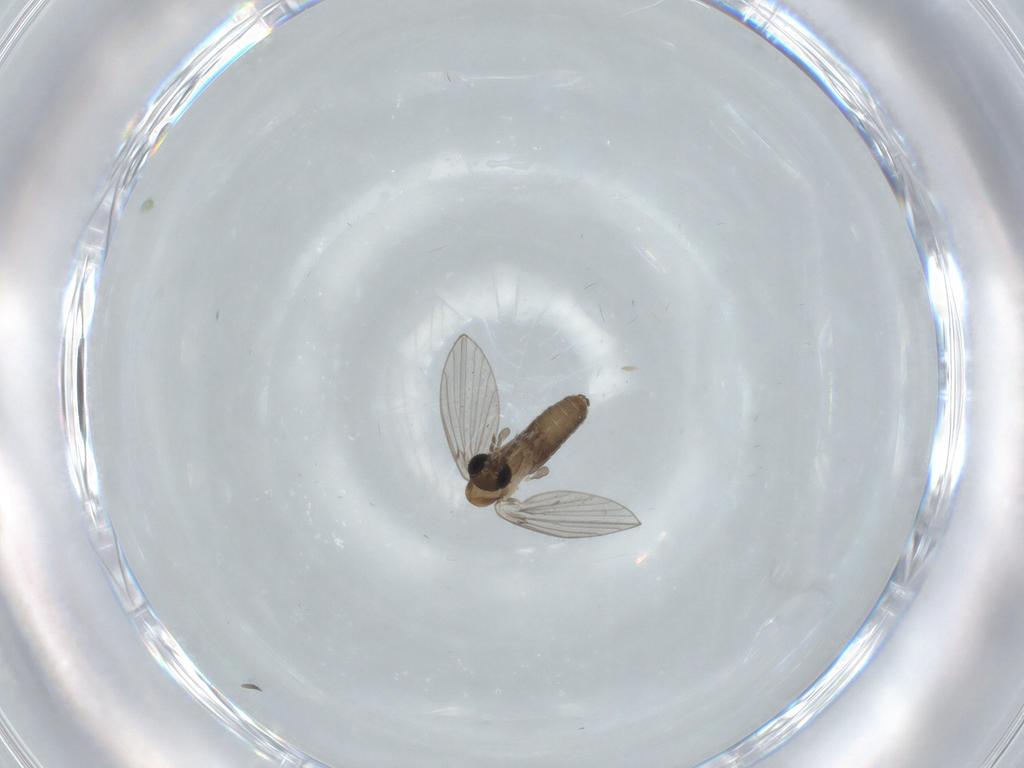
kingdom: Animalia
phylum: Arthropoda
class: Insecta
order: Diptera
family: Psychodidae
